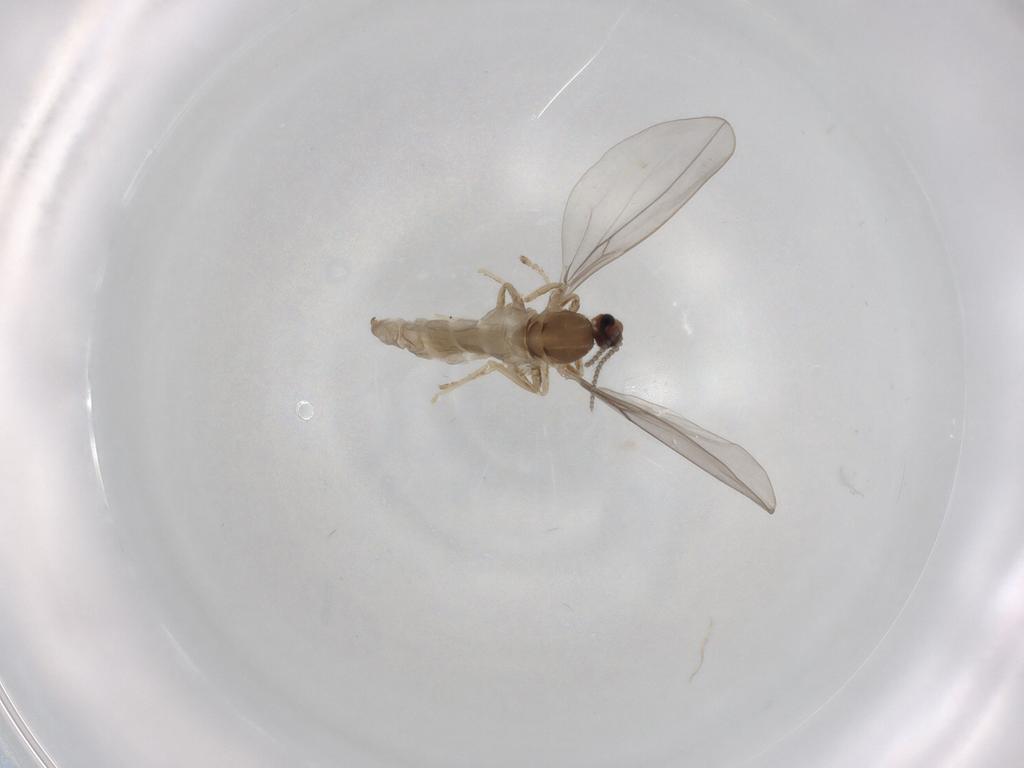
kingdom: Animalia
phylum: Arthropoda
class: Insecta
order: Diptera
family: Cecidomyiidae
